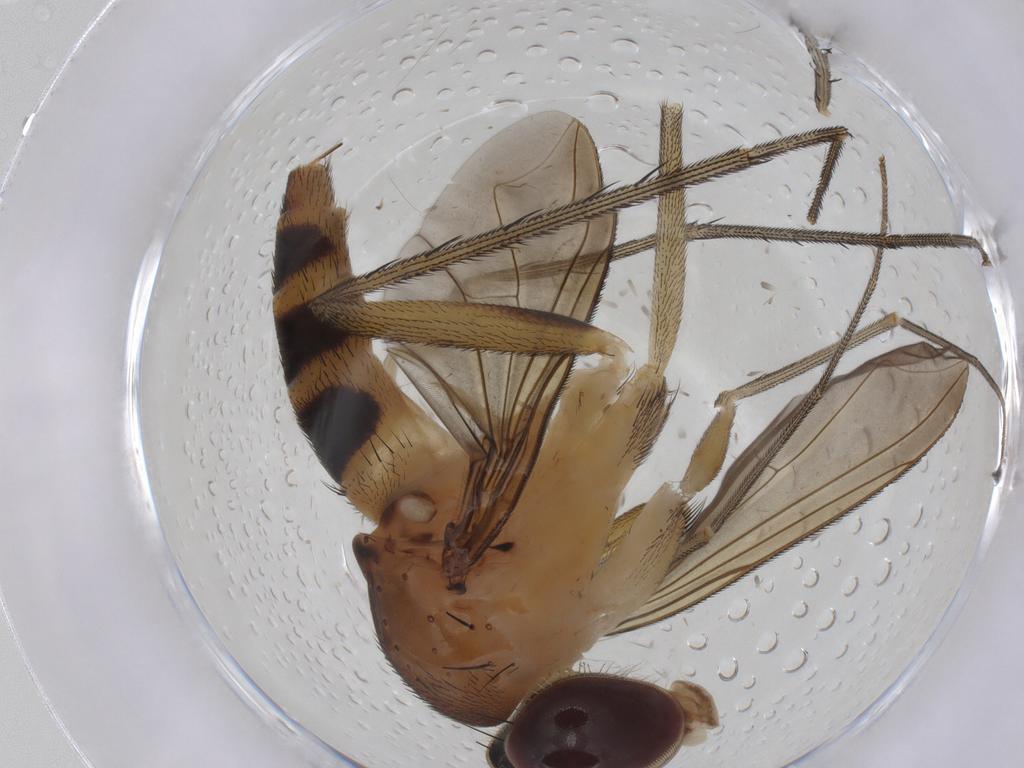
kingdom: Animalia
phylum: Arthropoda
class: Insecta
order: Diptera
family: Dolichopodidae
